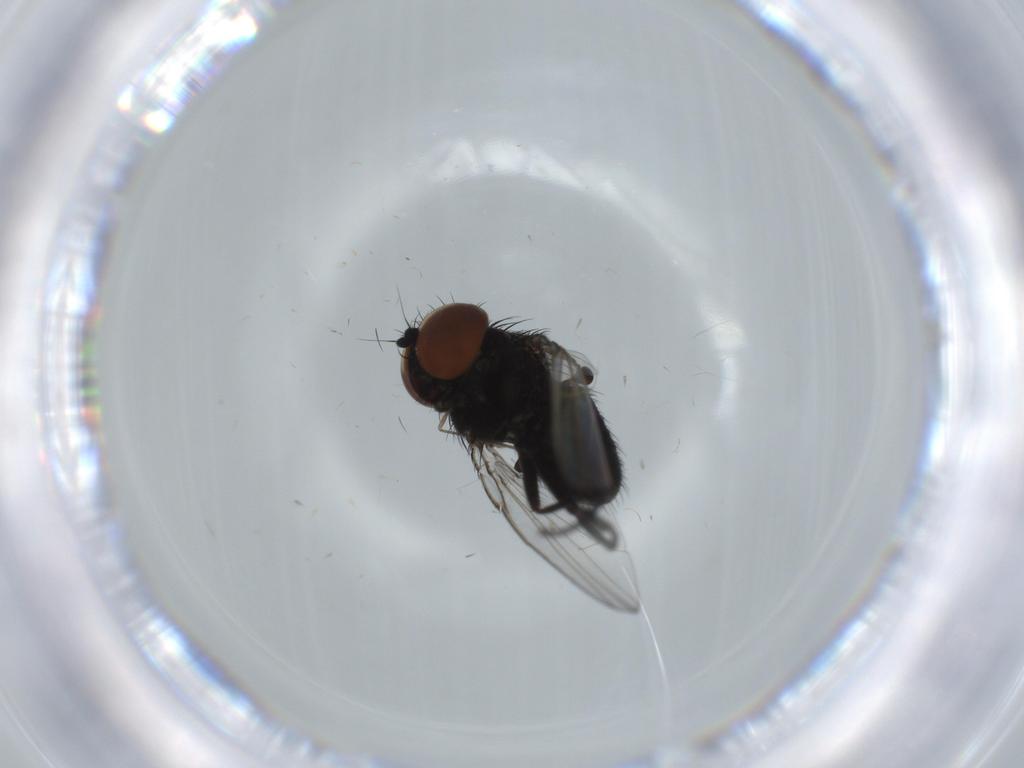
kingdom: Animalia
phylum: Arthropoda
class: Insecta
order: Diptera
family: Milichiidae
